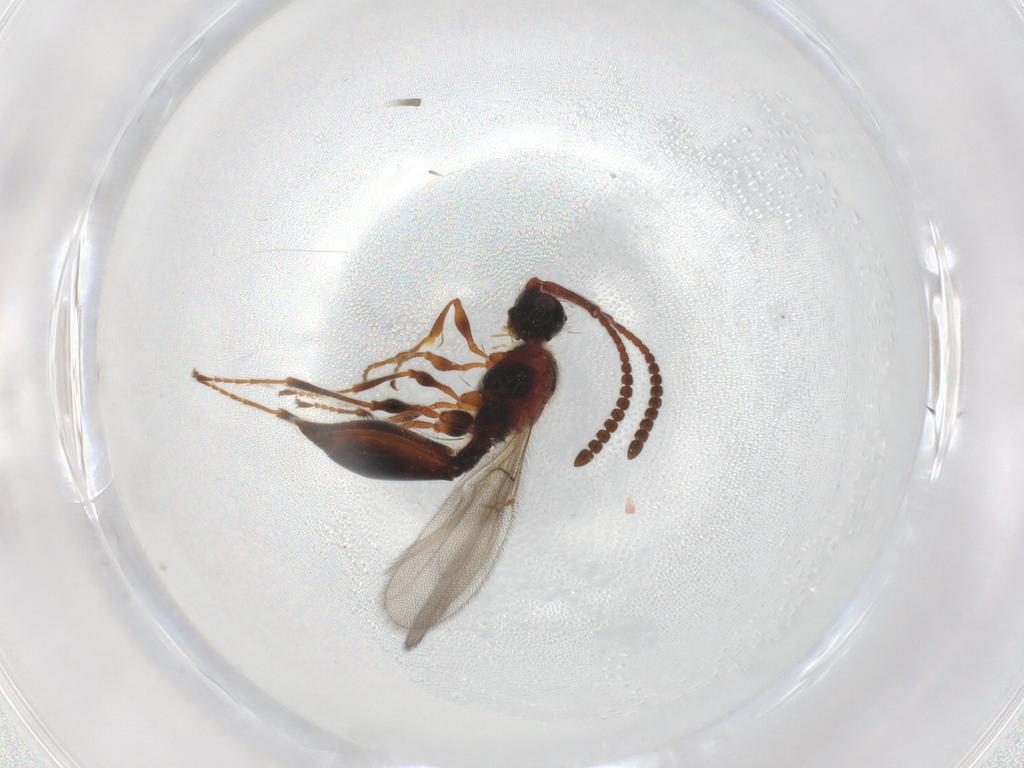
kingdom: Animalia
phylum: Arthropoda
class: Insecta
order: Hymenoptera
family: Diapriidae
